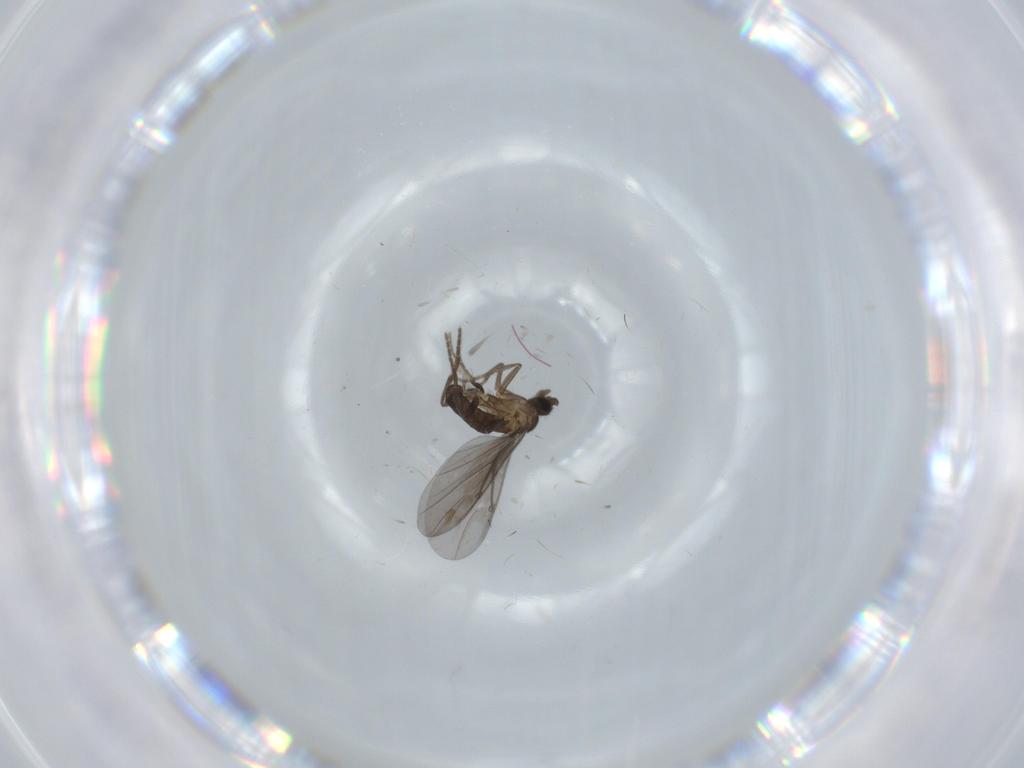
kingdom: Animalia
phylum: Arthropoda
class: Insecta
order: Diptera
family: Phoridae
